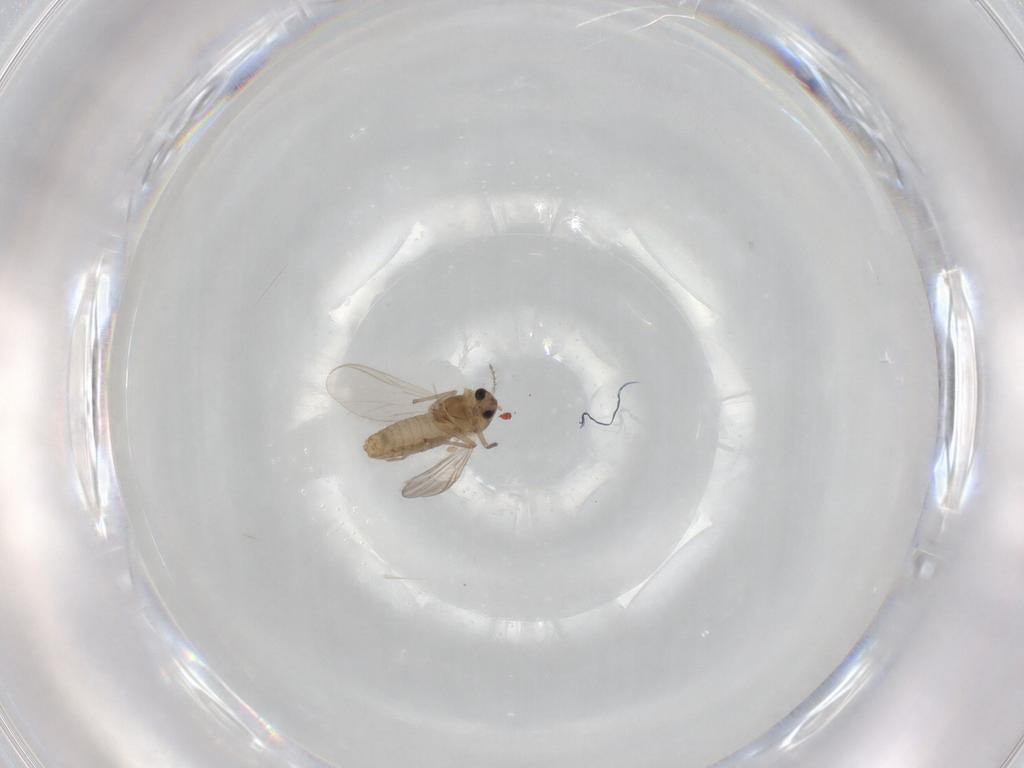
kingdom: Animalia
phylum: Arthropoda
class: Insecta
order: Diptera
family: Chironomidae
